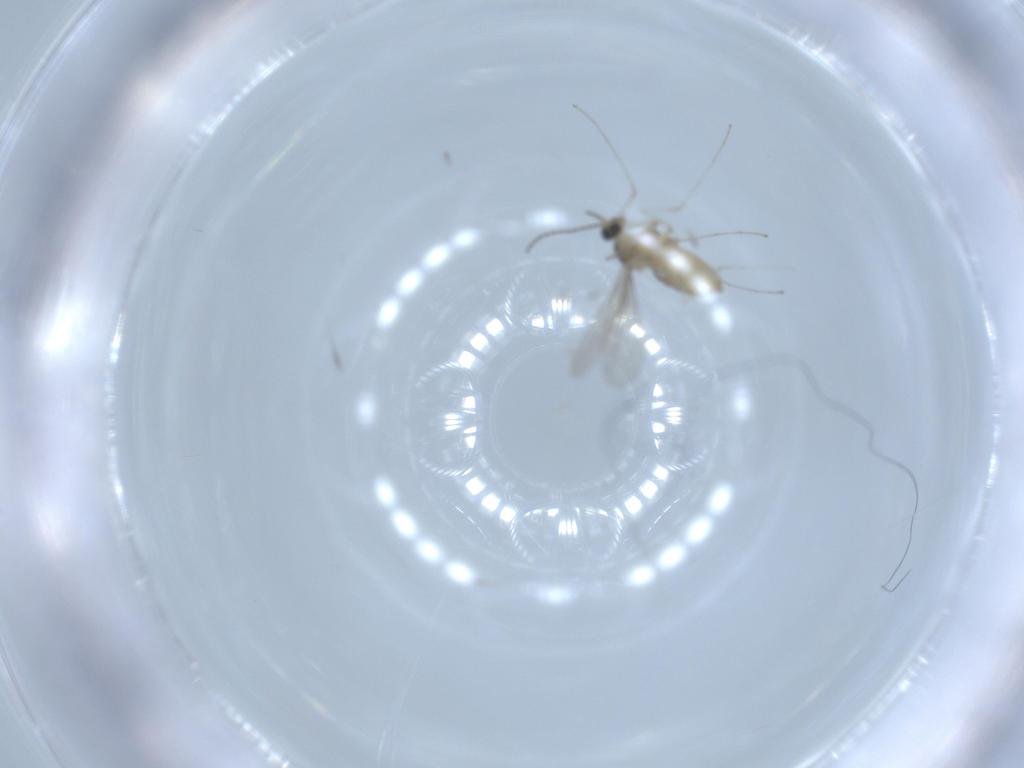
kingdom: Animalia
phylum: Arthropoda
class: Insecta
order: Diptera
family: Cecidomyiidae
